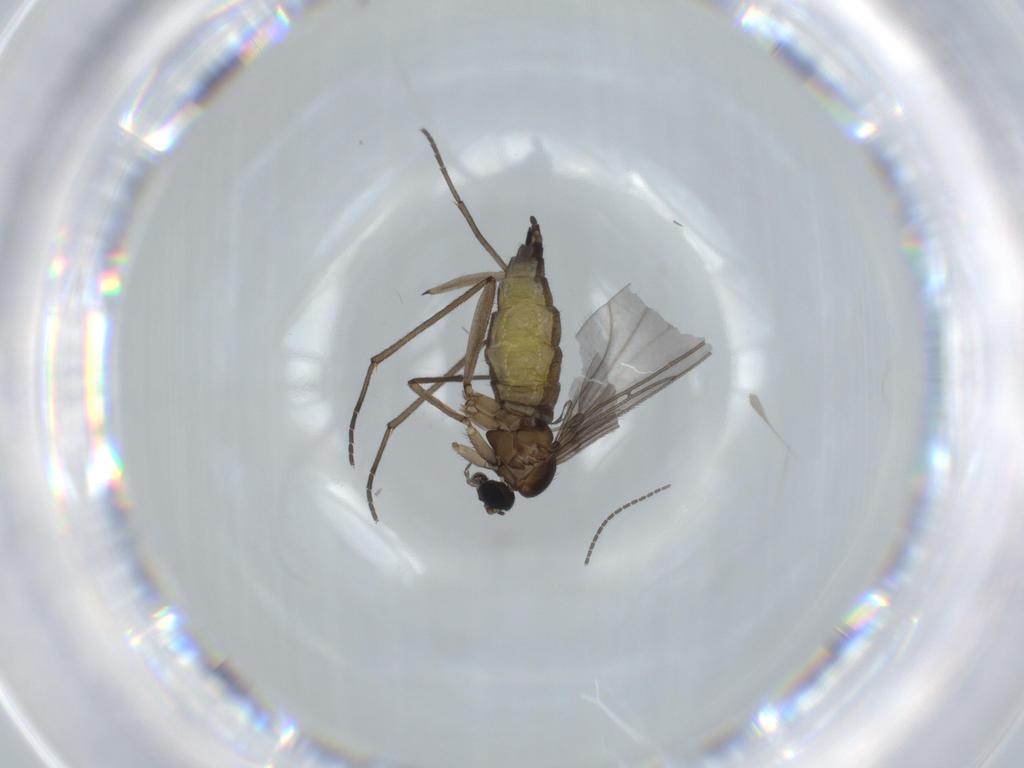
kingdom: Animalia
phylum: Arthropoda
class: Insecta
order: Diptera
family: Sciaridae
